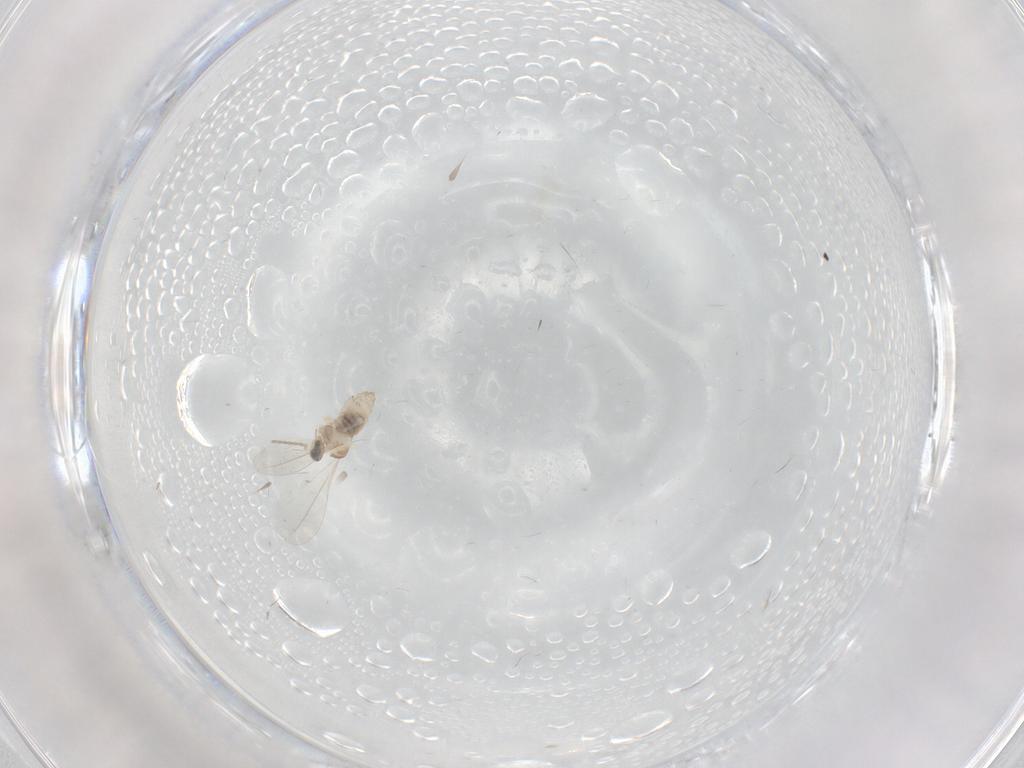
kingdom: Animalia
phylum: Arthropoda
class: Insecta
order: Diptera
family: Cecidomyiidae
